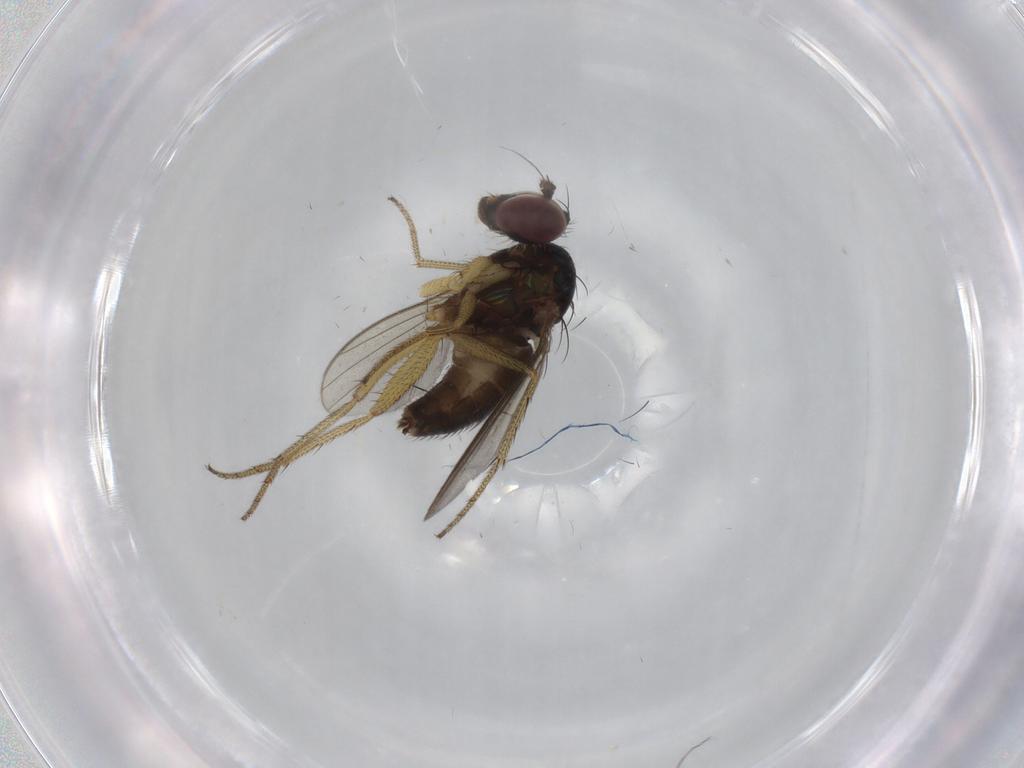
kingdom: Animalia
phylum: Arthropoda
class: Insecta
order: Diptera
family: Dolichopodidae
